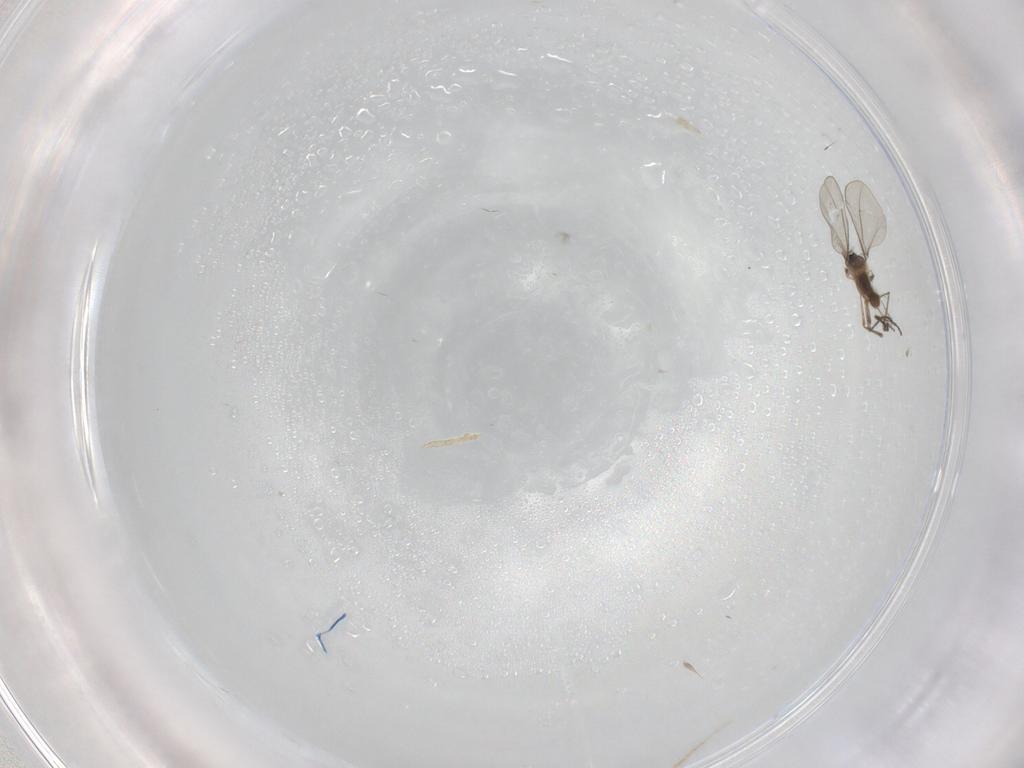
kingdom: Animalia
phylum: Arthropoda
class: Insecta
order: Diptera
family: Cecidomyiidae
